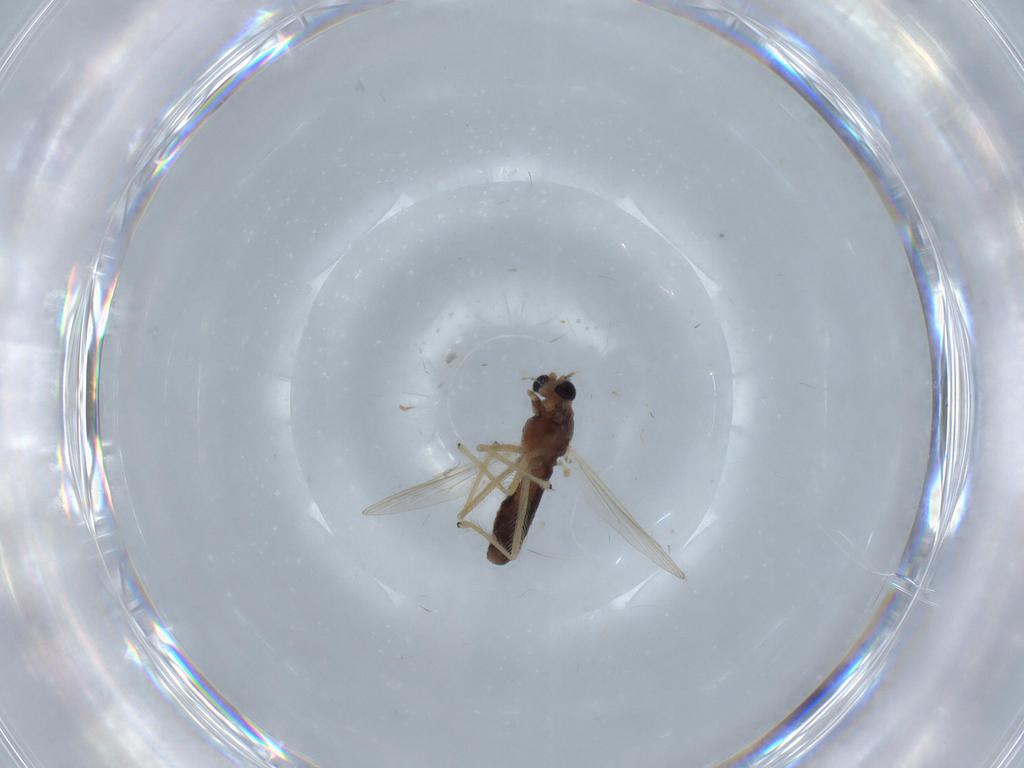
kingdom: Animalia
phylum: Arthropoda
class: Insecta
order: Diptera
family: Chironomidae
